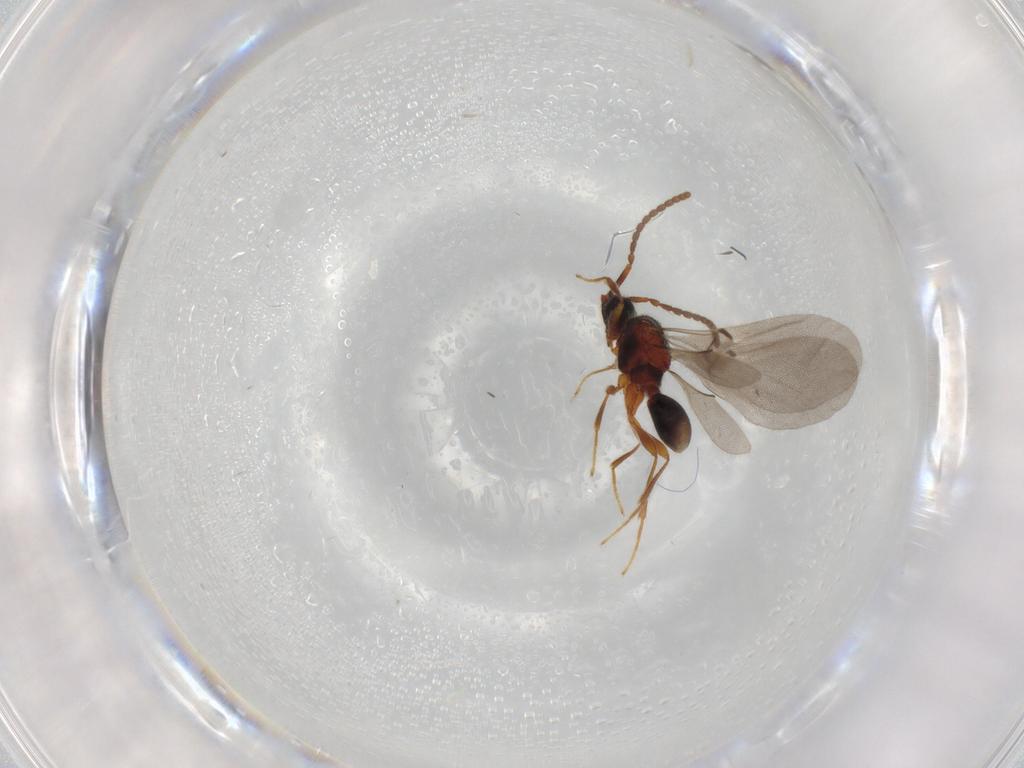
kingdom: Animalia
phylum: Arthropoda
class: Insecta
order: Hymenoptera
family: Diapriidae
